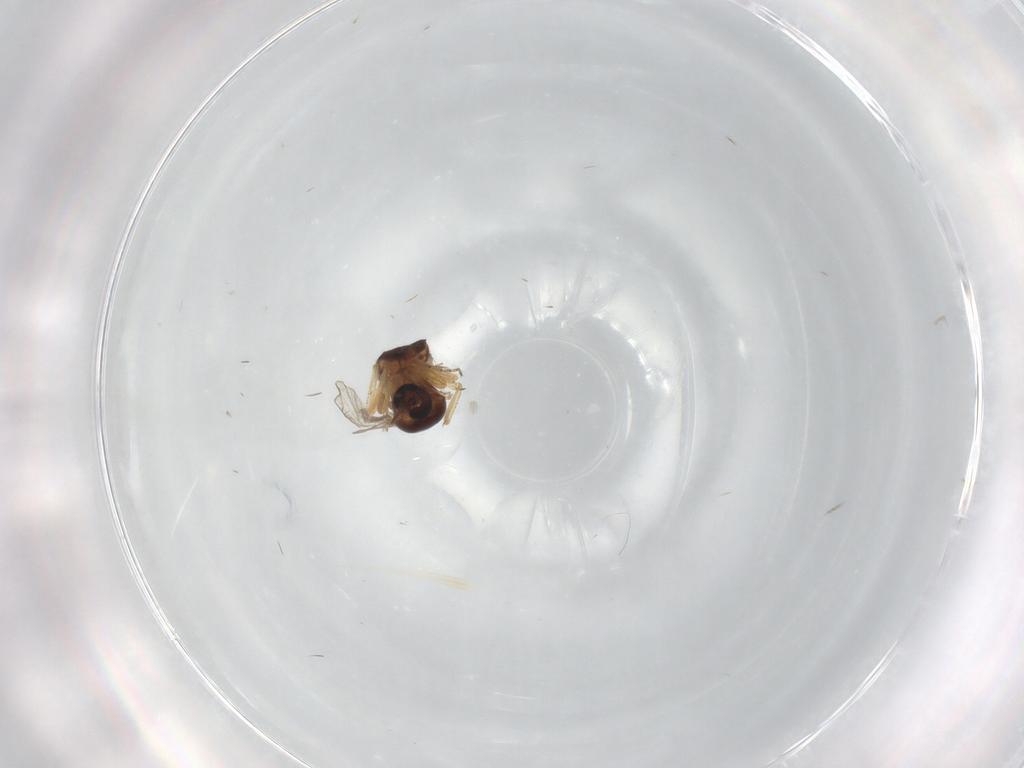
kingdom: Animalia
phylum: Arthropoda
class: Insecta
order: Diptera
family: Ceratopogonidae
